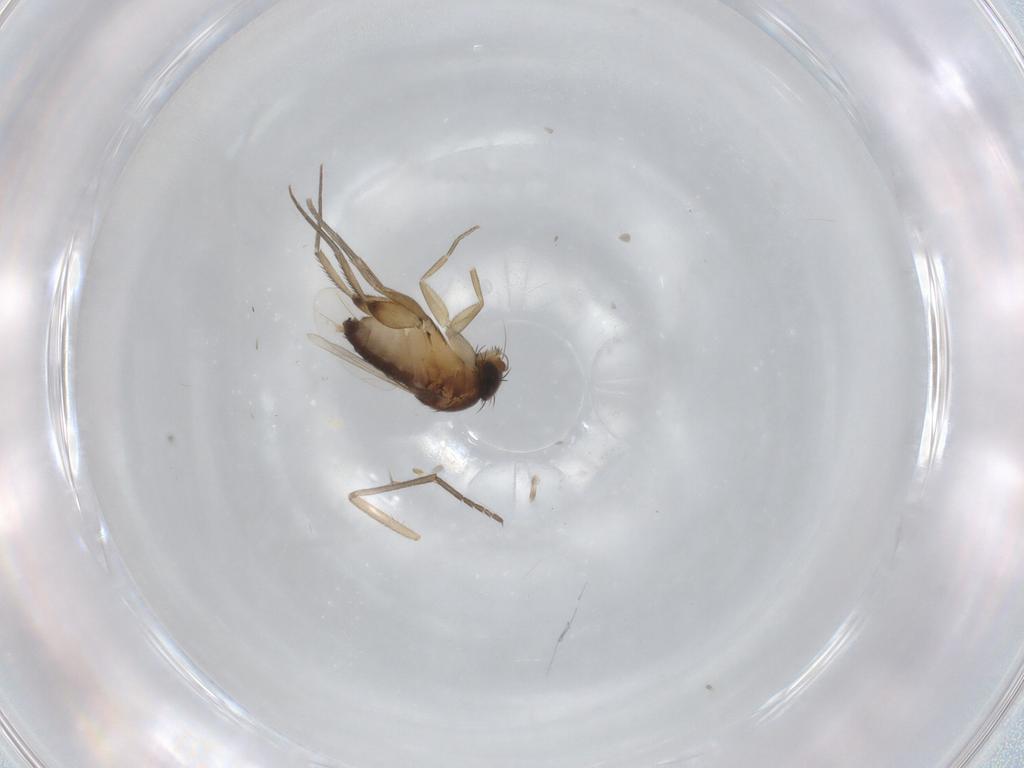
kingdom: Animalia
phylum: Arthropoda
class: Insecta
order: Diptera
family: Phoridae
